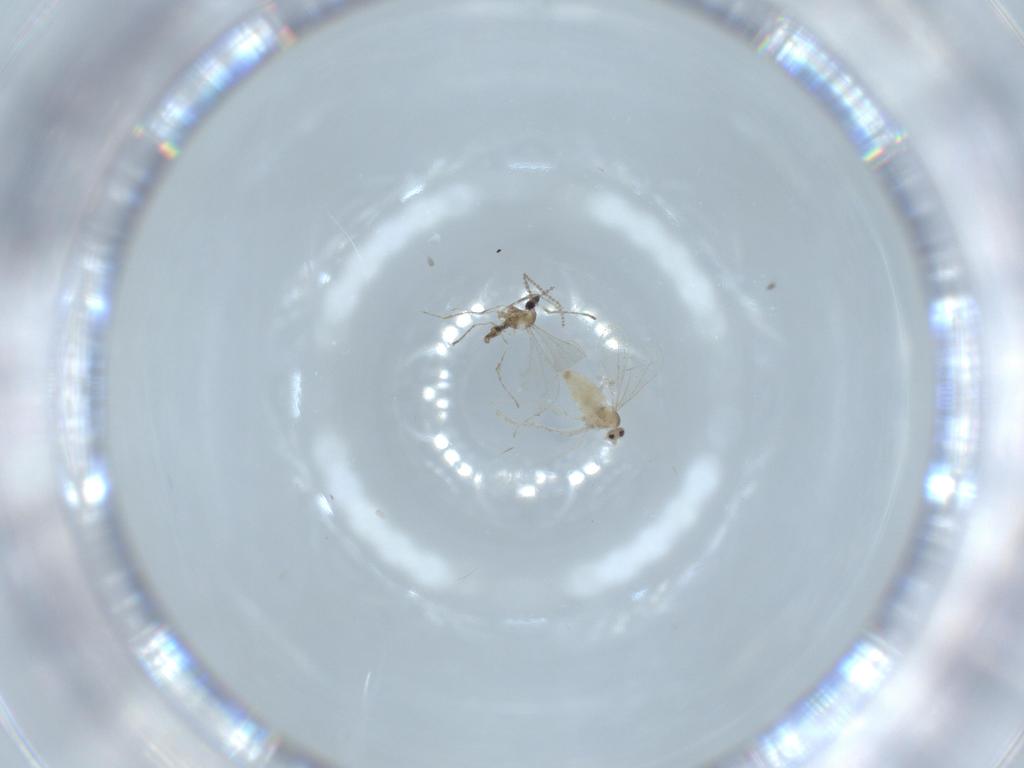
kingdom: Animalia
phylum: Arthropoda
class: Insecta
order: Diptera
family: Cecidomyiidae
